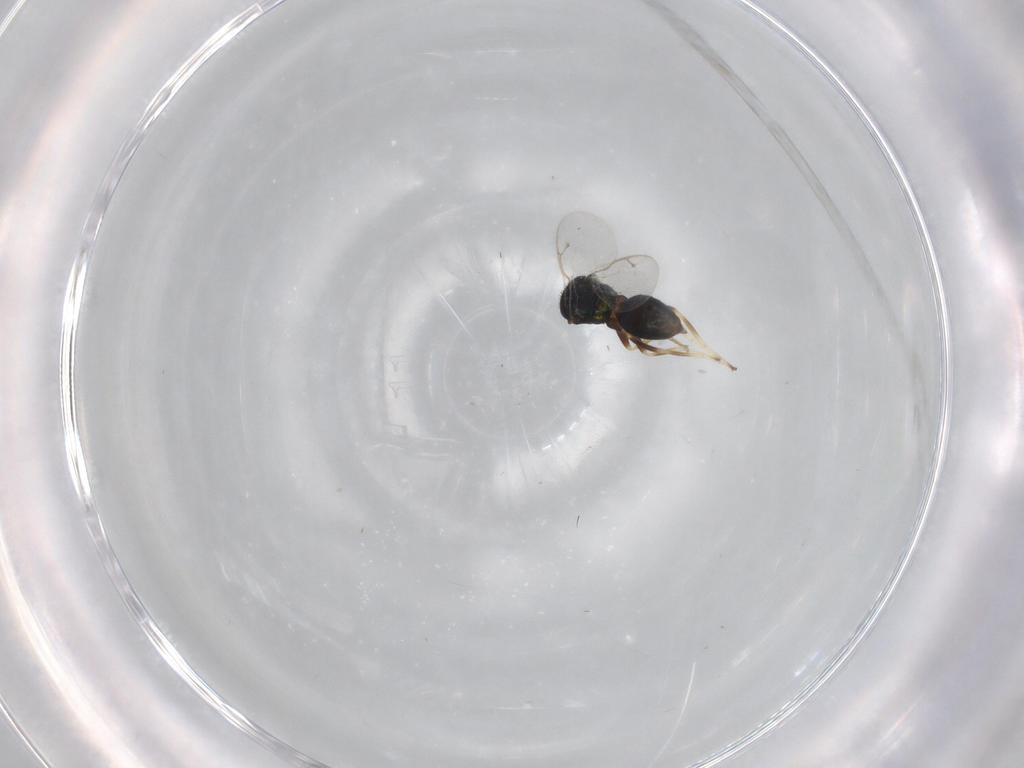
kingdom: Animalia
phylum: Arthropoda
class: Insecta
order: Hymenoptera
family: Pteromalidae
